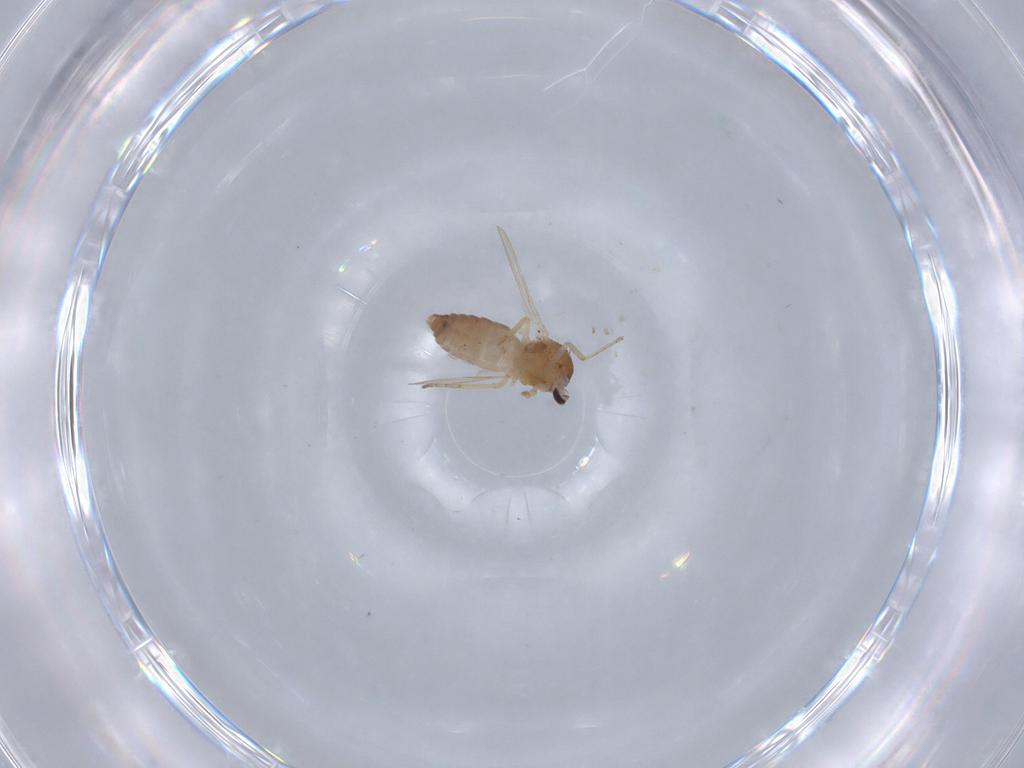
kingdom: Animalia
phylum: Arthropoda
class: Insecta
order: Diptera
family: Ceratopogonidae
